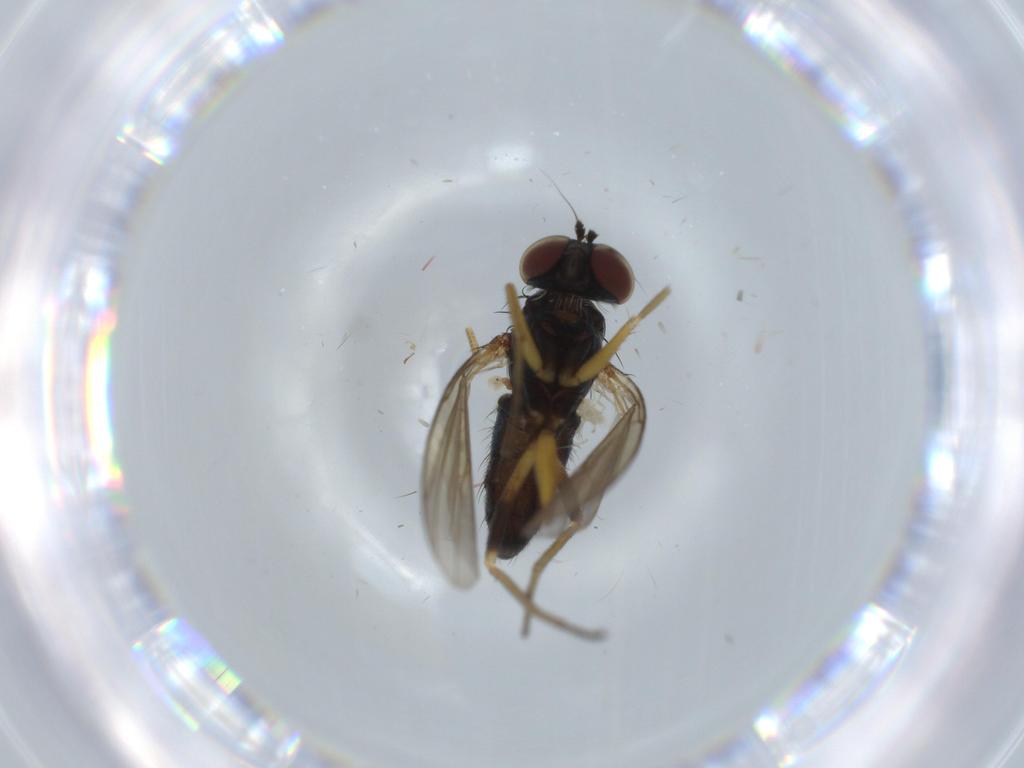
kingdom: Animalia
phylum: Arthropoda
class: Insecta
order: Diptera
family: Dolichopodidae
